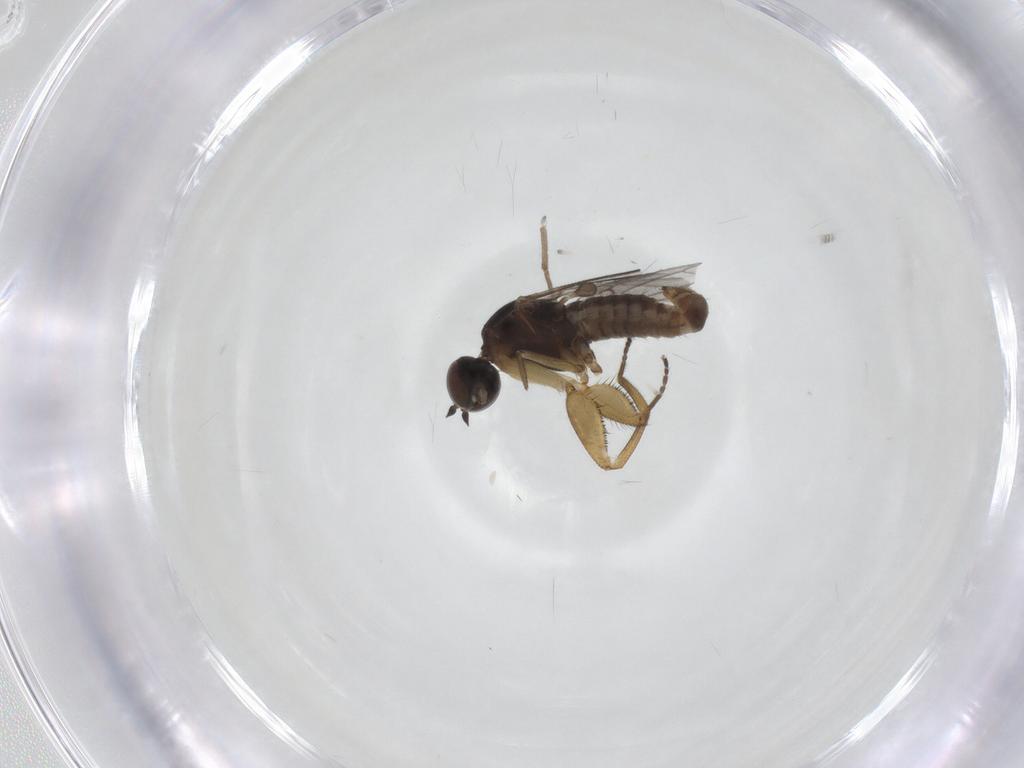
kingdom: Animalia
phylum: Arthropoda
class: Insecta
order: Diptera
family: Empididae
